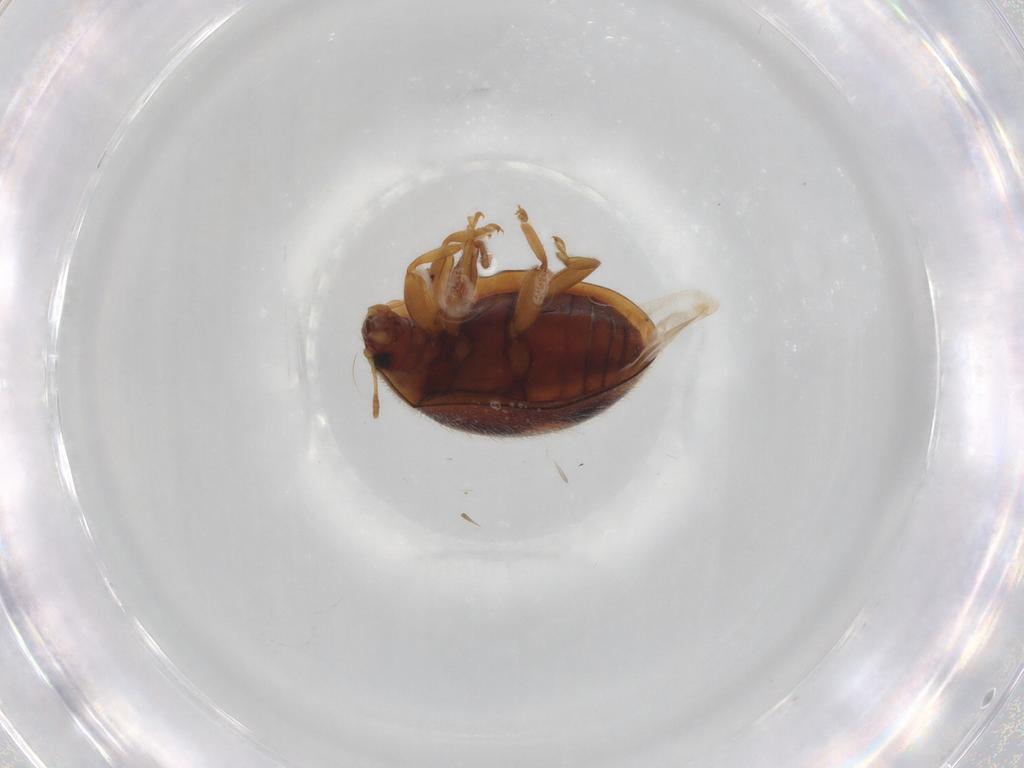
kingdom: Animalia
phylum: Arthropoda
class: Insecta
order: Coleoptera
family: Coccinellidae
